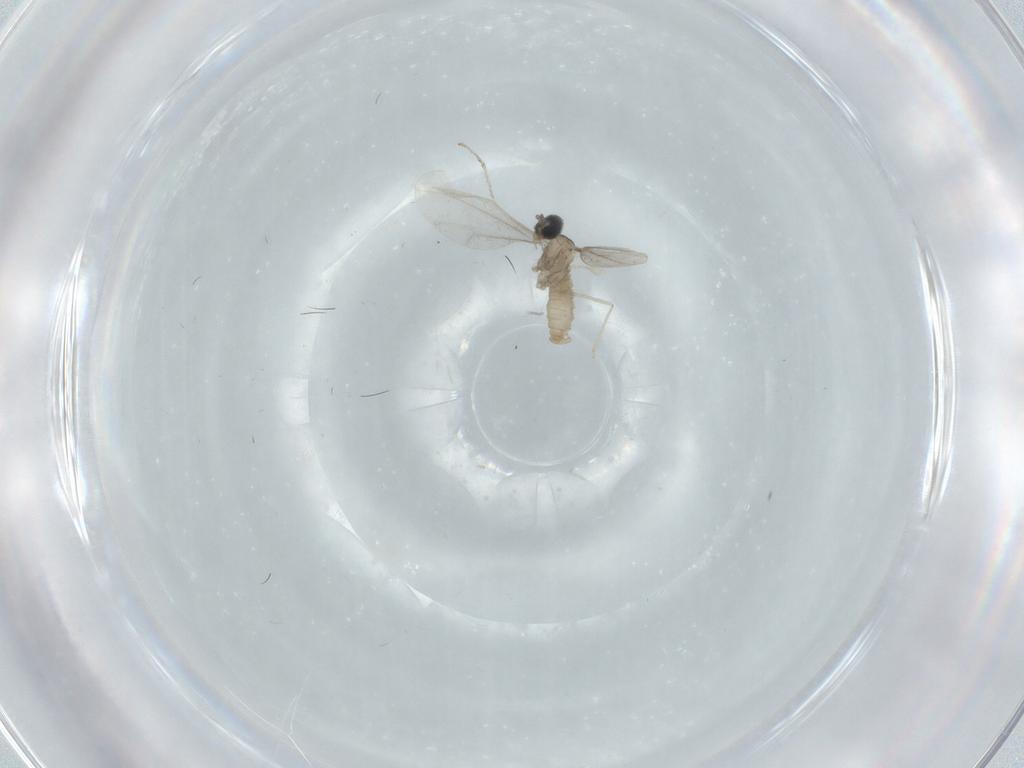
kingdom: Animalia
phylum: Arthropoda
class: Insecta
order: Diptera
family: Cecidomyiidae
